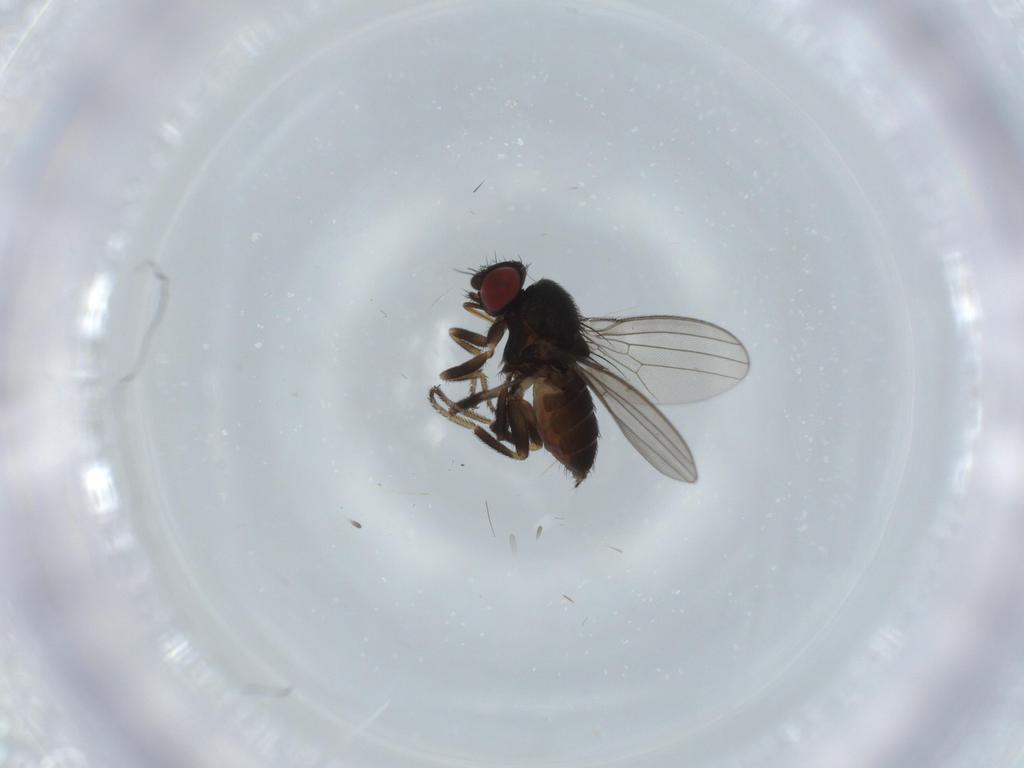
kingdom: Animalia
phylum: Arthropoda
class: Insecta
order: Diptera
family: Milichiidae
